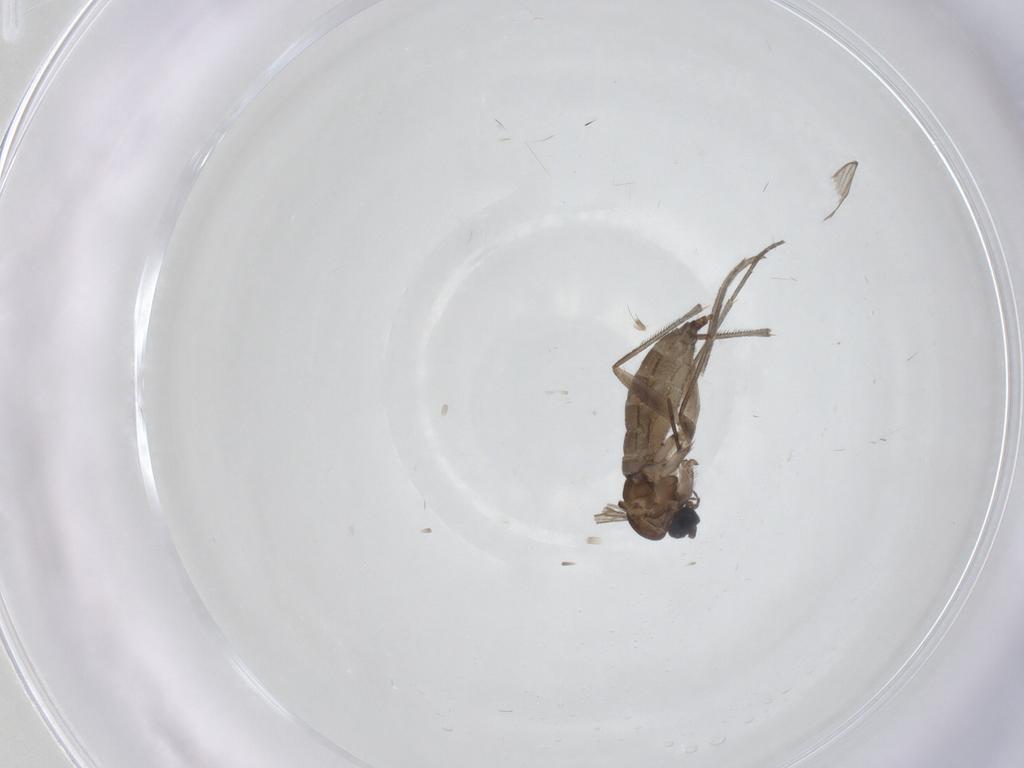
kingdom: Animalia
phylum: Arthropoda
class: Insecta
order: Diptera
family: Sciaridae
